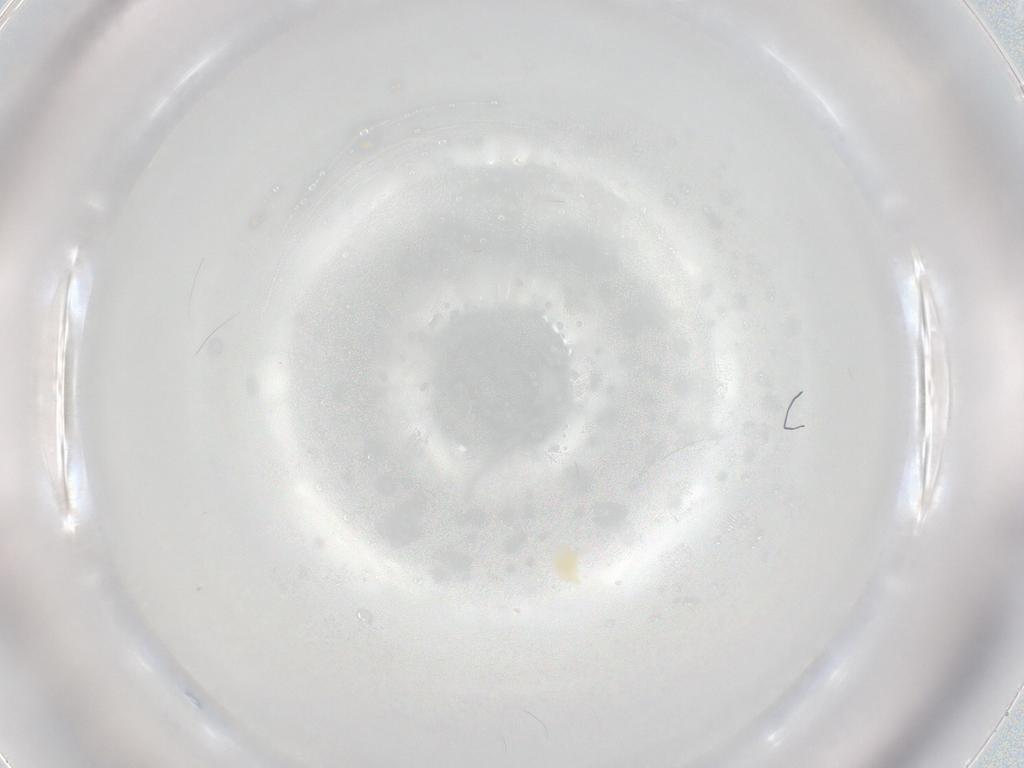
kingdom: Animalia
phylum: Arthropoda
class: Arachnida
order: Trombidiformes
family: Eupodidae
